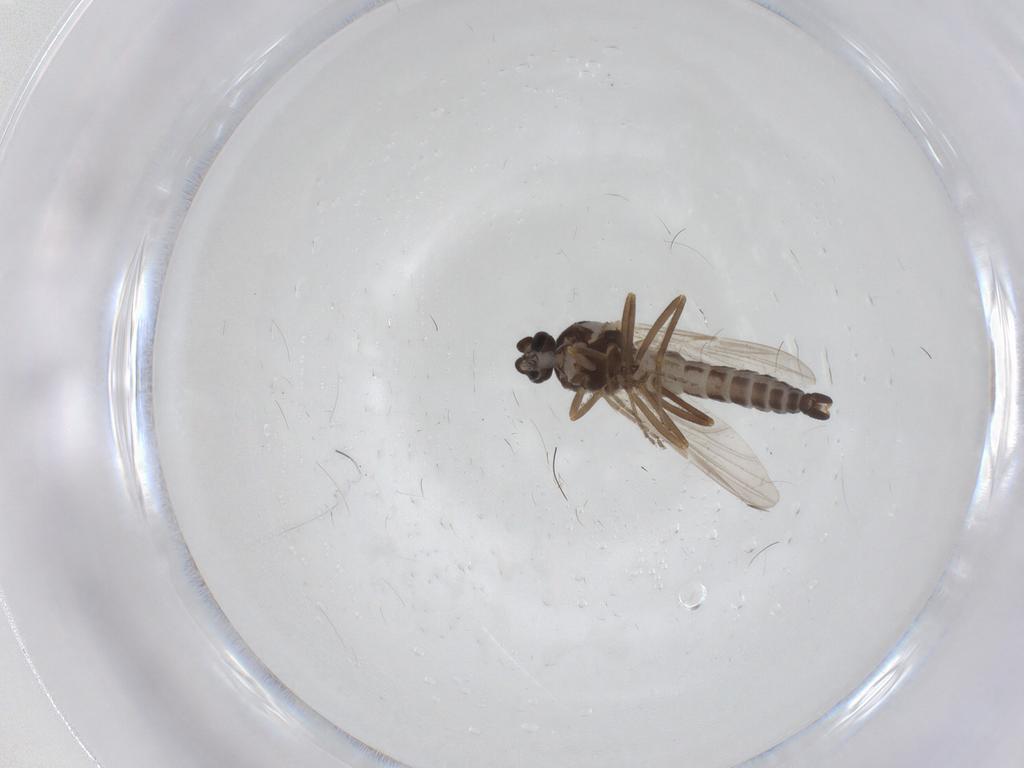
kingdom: Animalia
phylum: Arthropoda
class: Insecta
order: Diptera
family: Ceratopogonidae
